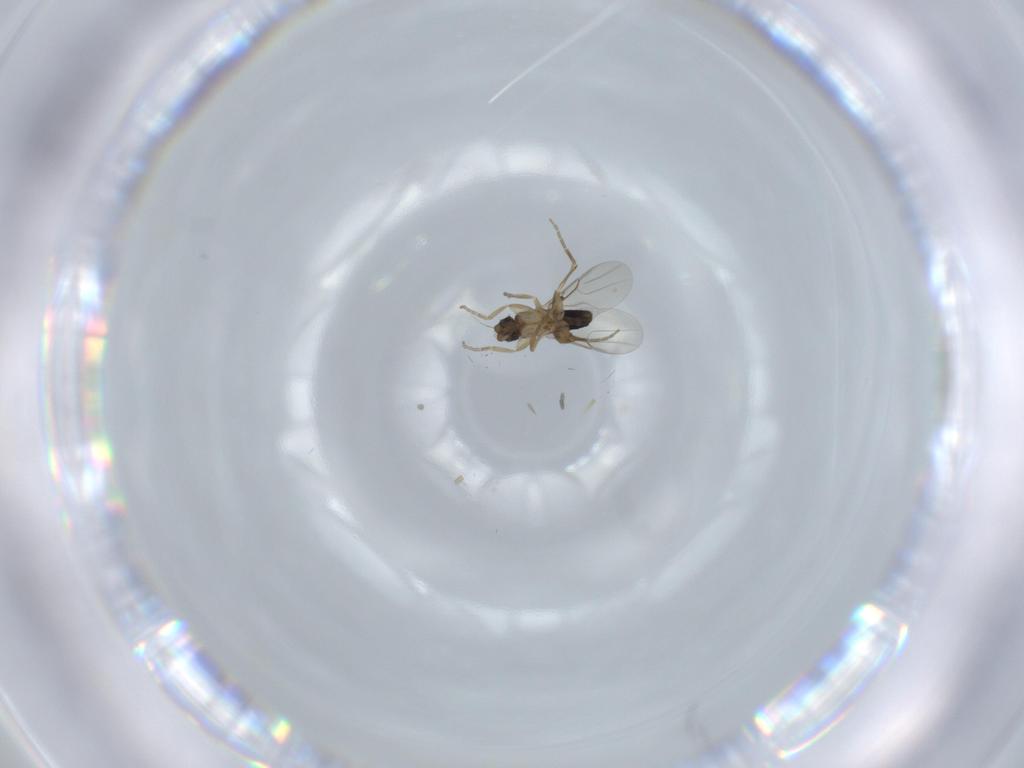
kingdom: Animalia
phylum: Arthropoda
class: Insecta
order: Diptera
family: Phoridae
